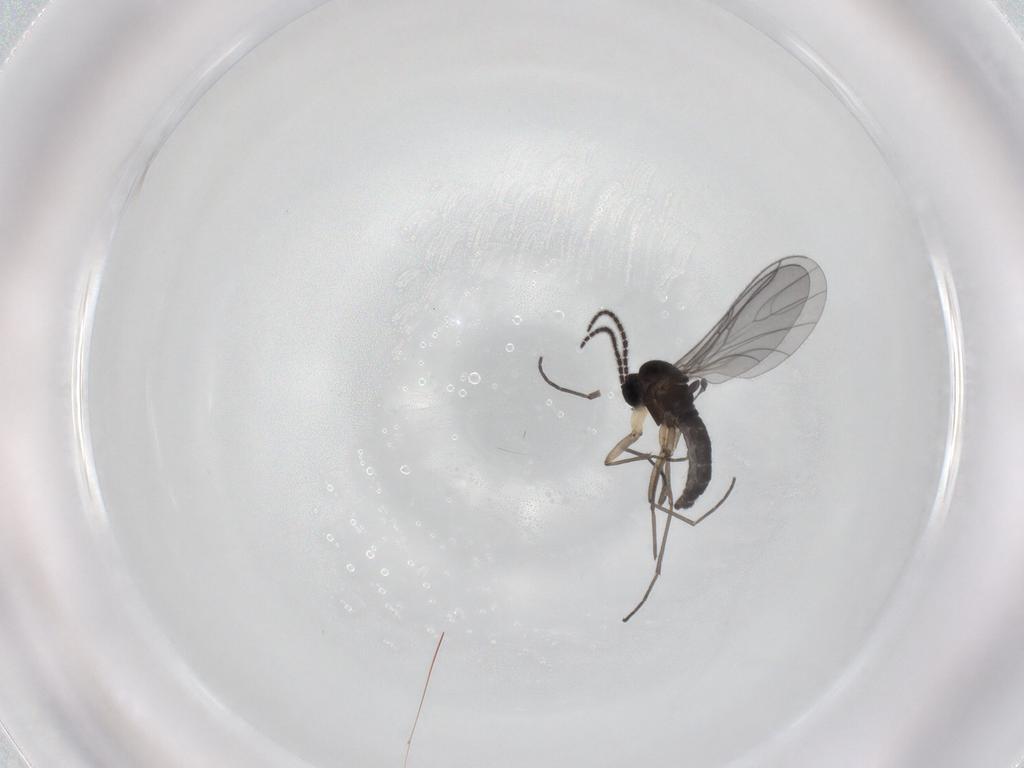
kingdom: Animalia
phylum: Arthropoda
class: Insecta
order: Diptera
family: Sciaridae
